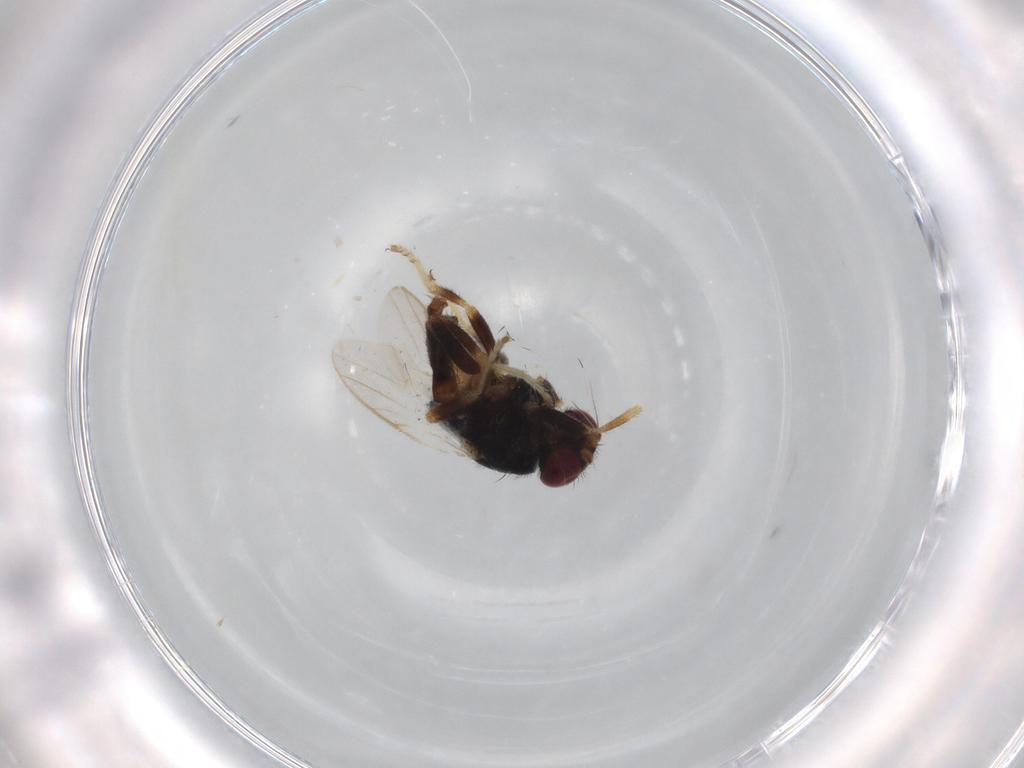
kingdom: Animalia
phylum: Arthropoda
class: Insecta
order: Diptera
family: Chloropidae
